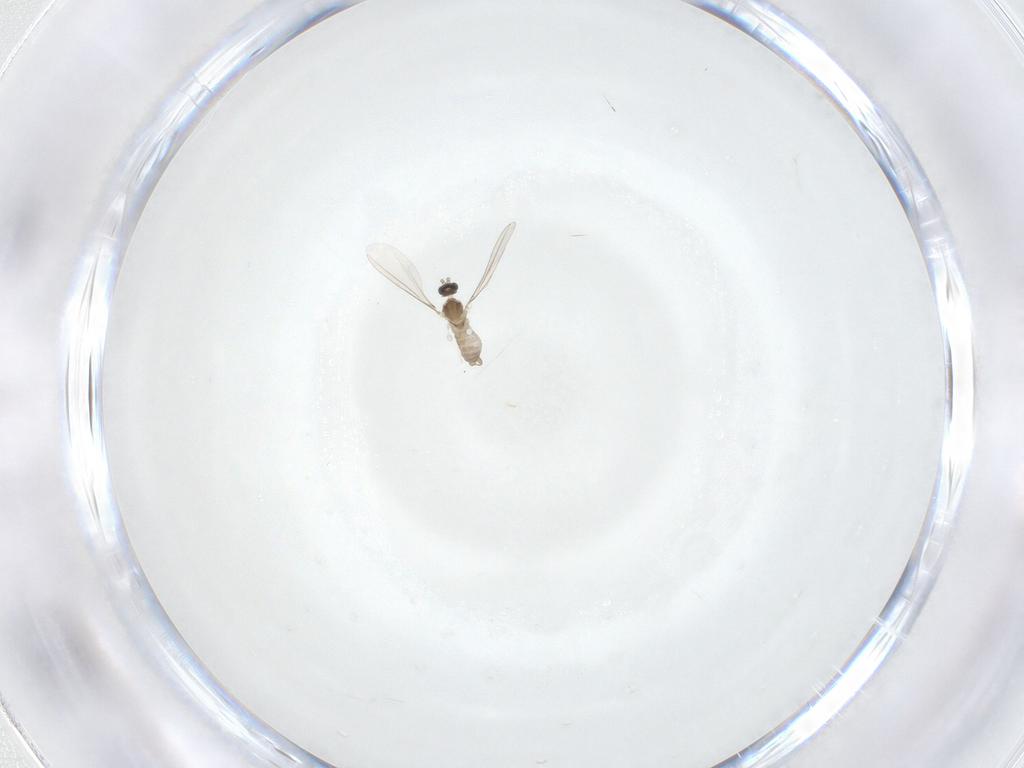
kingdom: Animalia
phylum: Arthropoda
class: Insecta
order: Diptera
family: Cecidomyiidae
